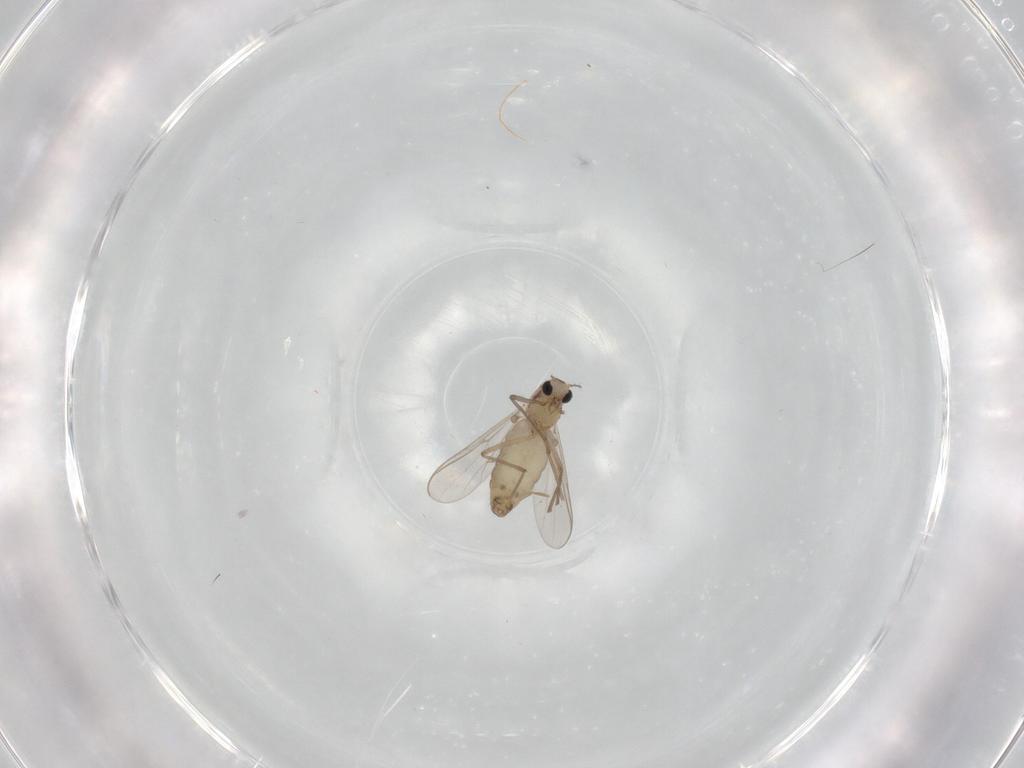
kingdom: Animalia
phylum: Arthropoda
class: Insecta
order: Diptera
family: Chironomidae
